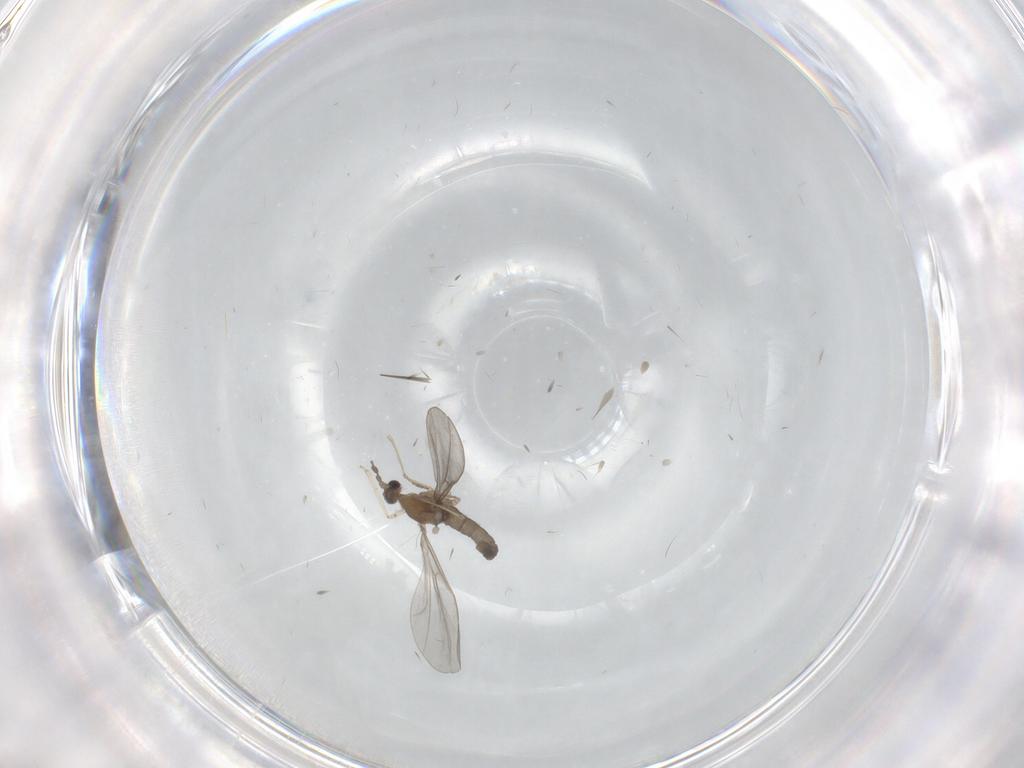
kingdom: Animalia
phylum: Arthropoda
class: Insecta
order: Diptera
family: Cecidomyiidae
